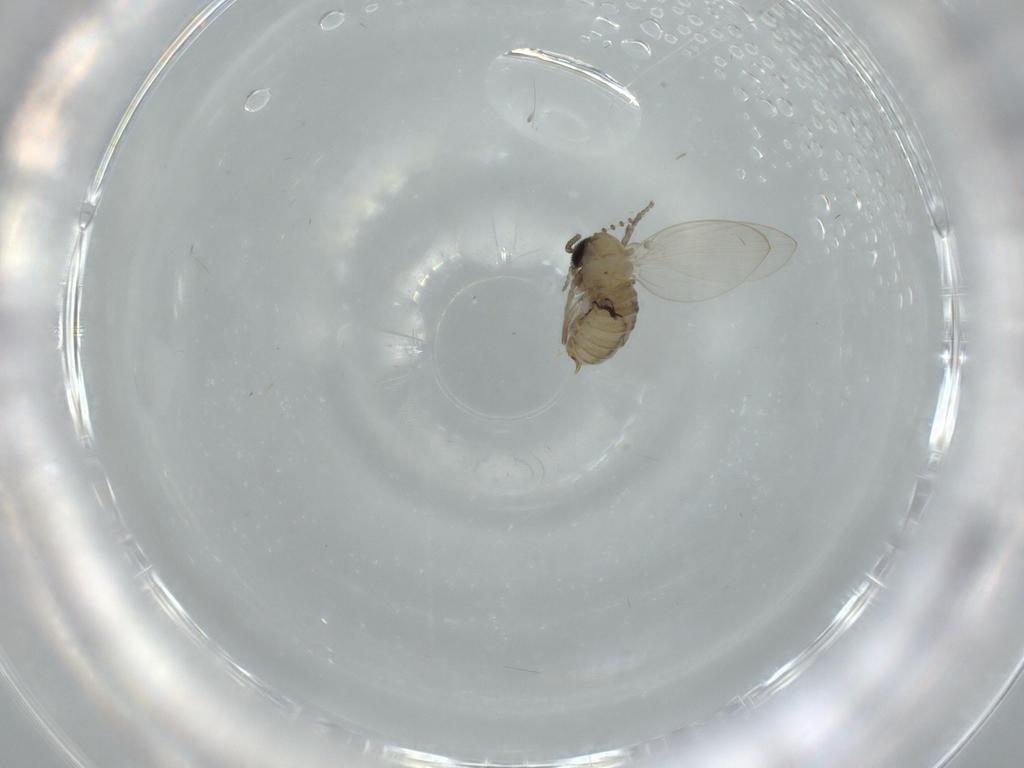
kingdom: Animalia
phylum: Arthropoda
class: Insecta
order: Diptera
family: Psychodidae
